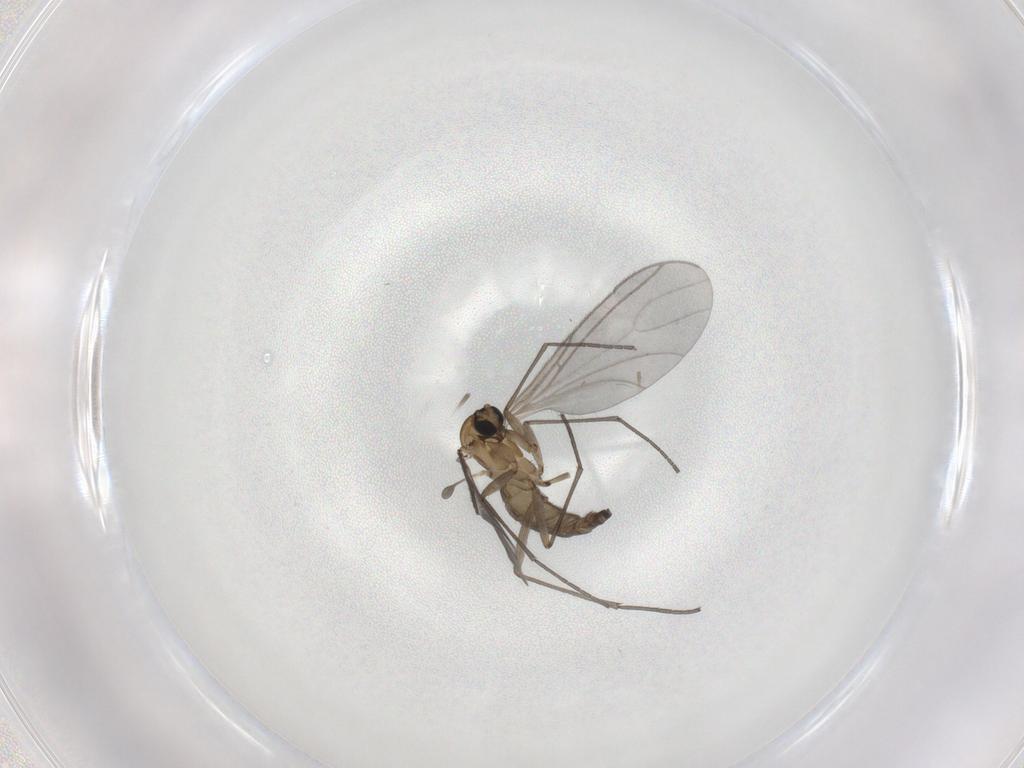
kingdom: Animalia
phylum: Arthropoda
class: Insecta
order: Diptera
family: Sciaridae
